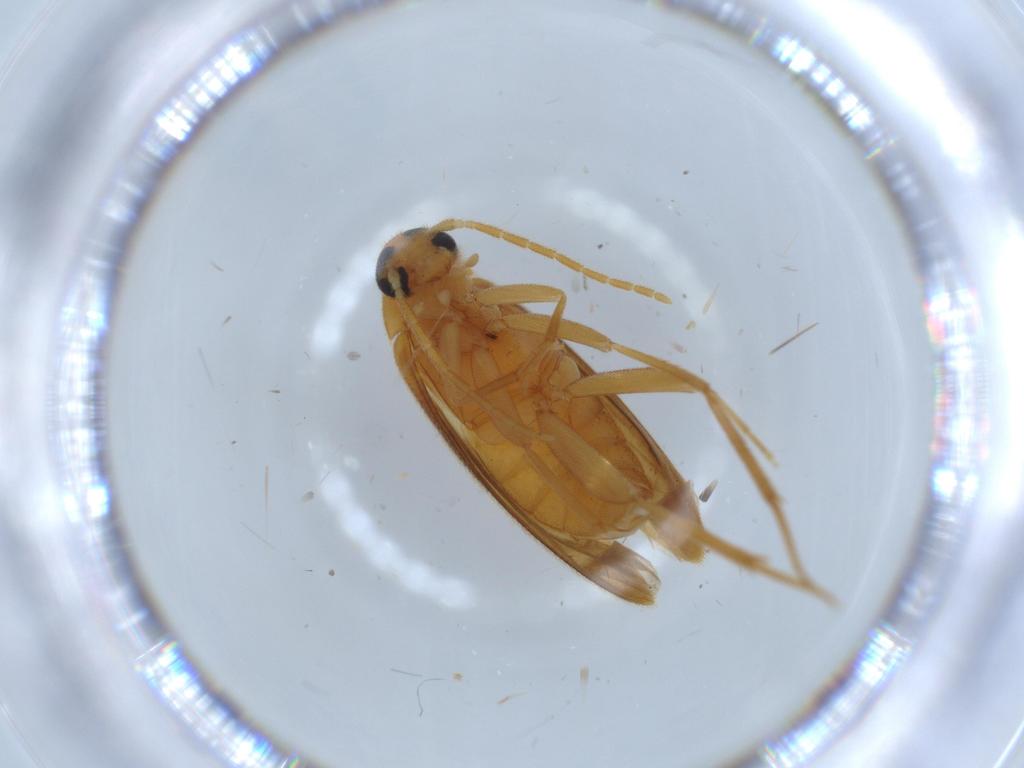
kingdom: Animalia
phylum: Arthropoda
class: Insecta
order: Coleoptera
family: Scraptiidae
